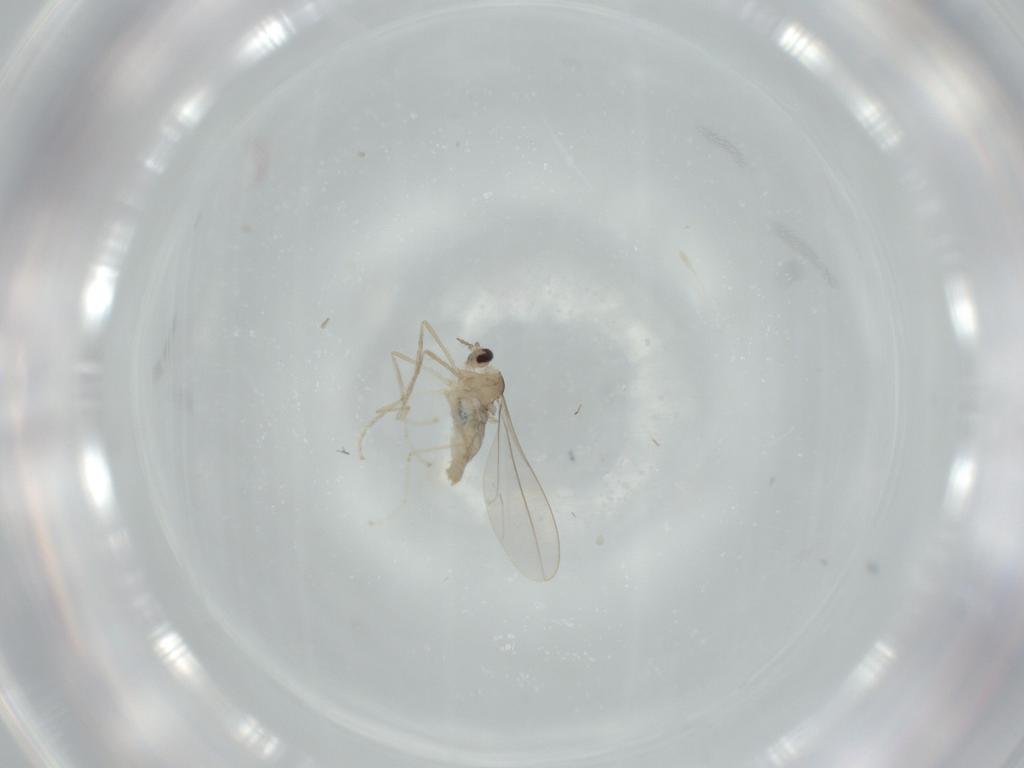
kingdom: Animalia
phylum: Arthropoda
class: Insecta
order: Diptera
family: Cecidomyiidae
